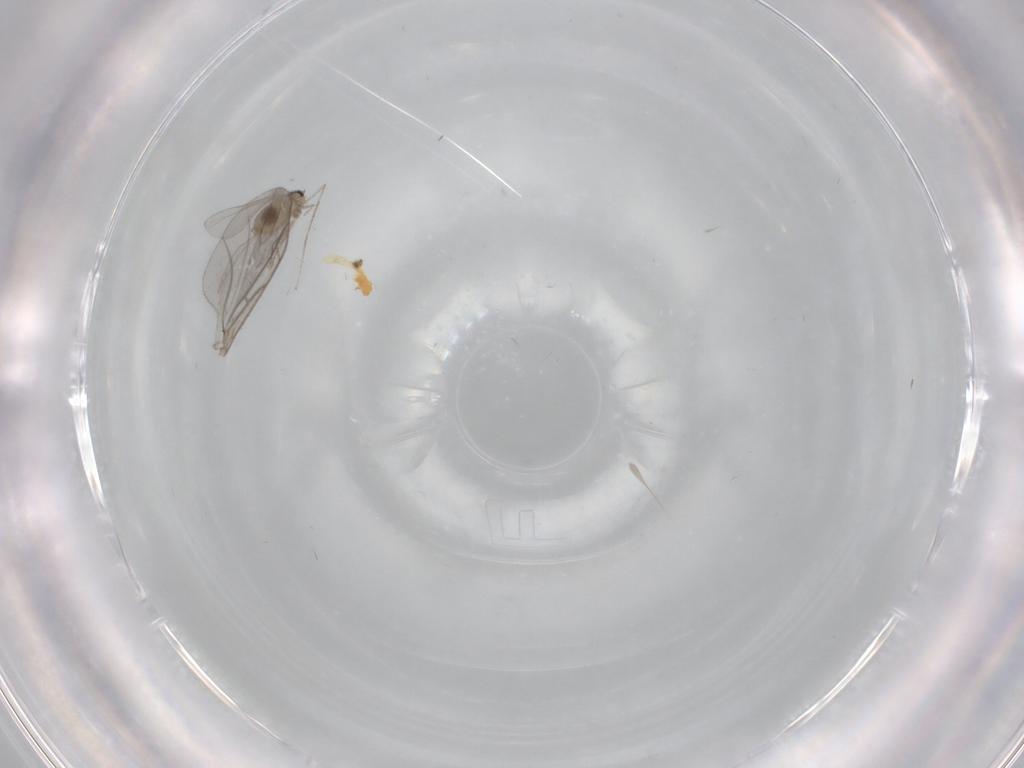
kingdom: Animalia
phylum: Arthropoda
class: Insecta
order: Diptera
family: Cecidomyiidae
